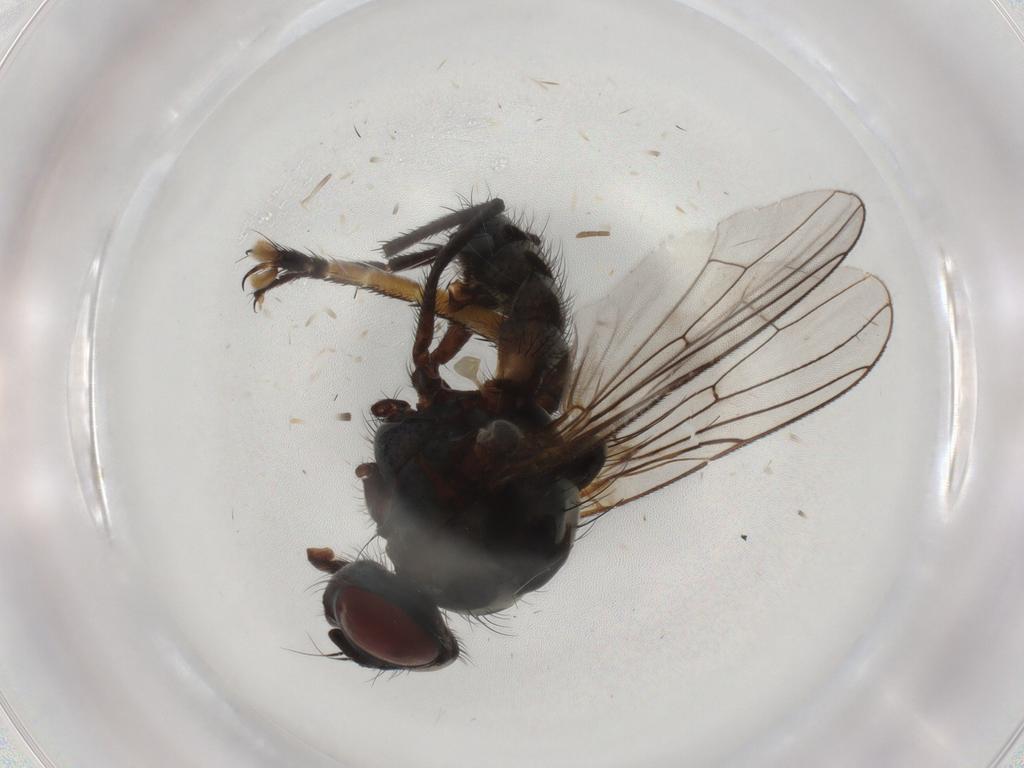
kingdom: Animalia
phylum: Arthropoda
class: Insecta
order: Diptera
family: Anthomyiidae
